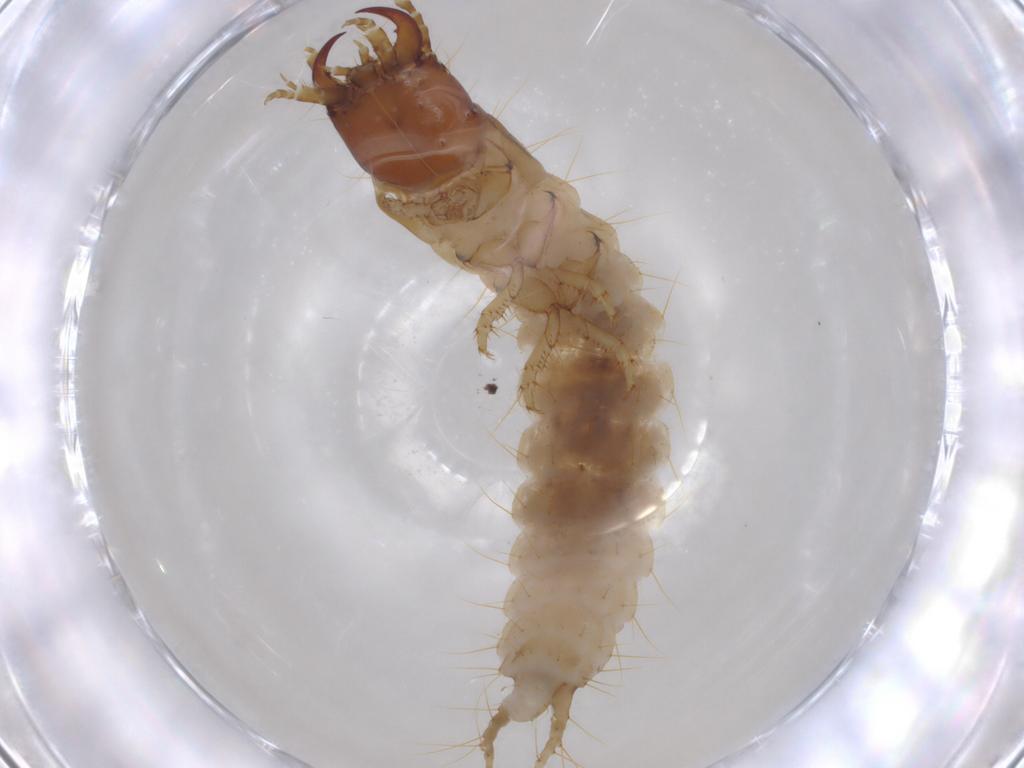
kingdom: Animalia
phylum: Arthropoda
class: Insecta
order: Coleoptera
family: Carabidae
